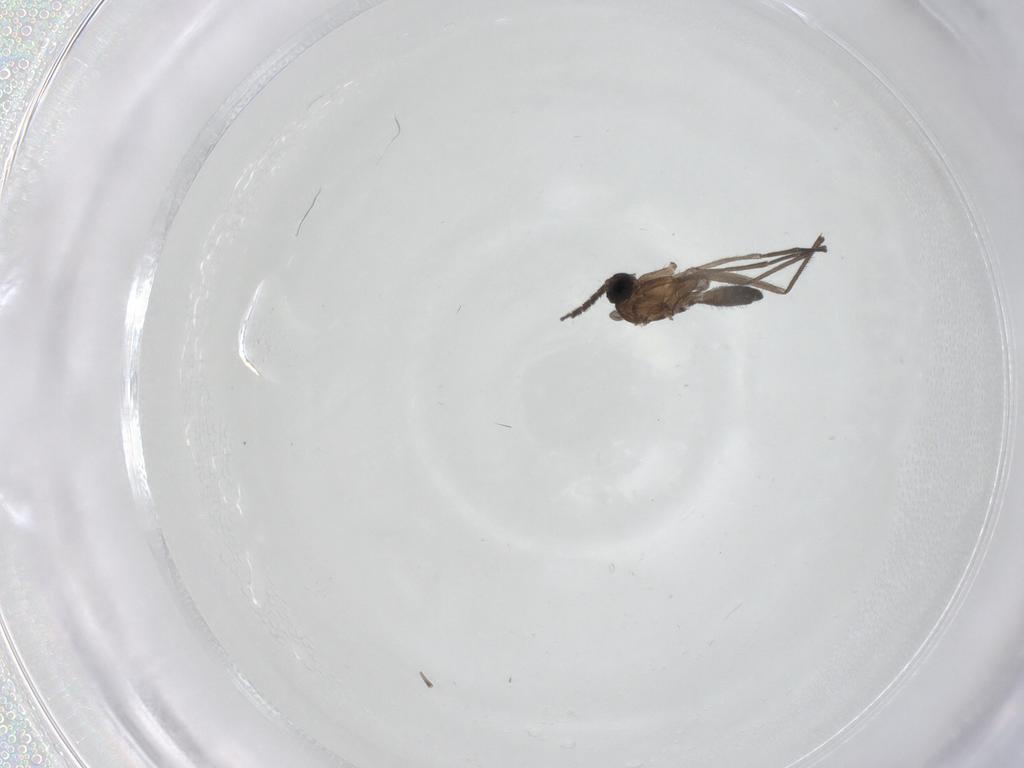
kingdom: Animalia
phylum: Arthropoda
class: Insecta
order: Diptera
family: Sciaridae
